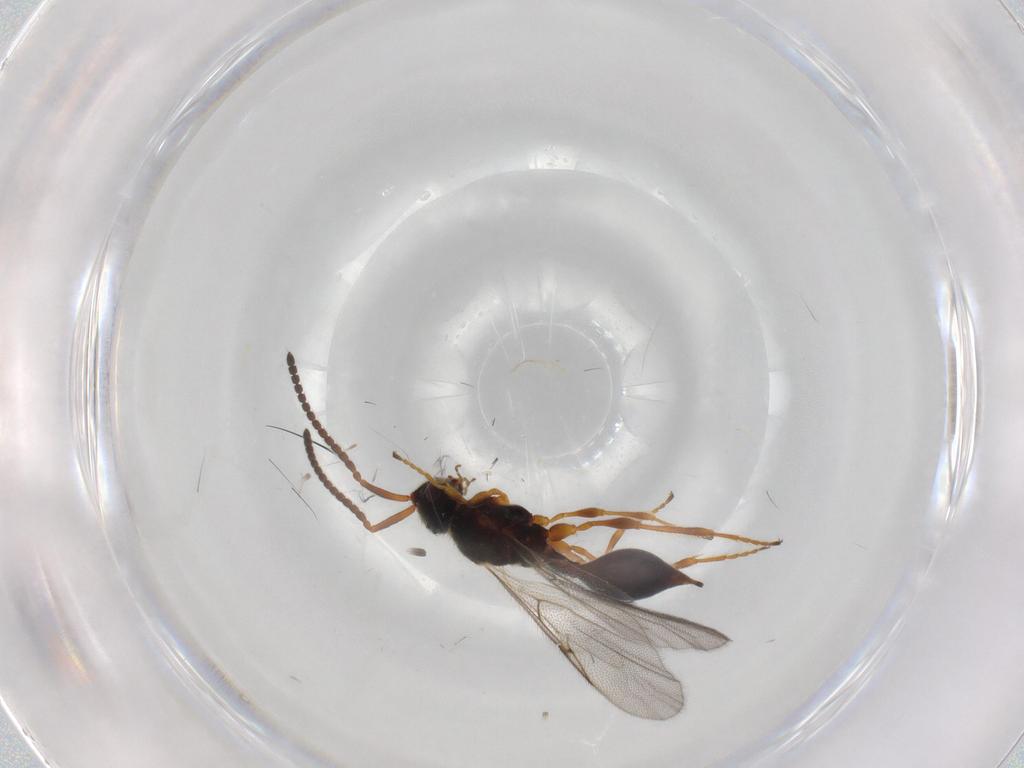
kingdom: Animalia
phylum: Arthropoda
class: Insecta
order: Hymenoptera
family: Diapriidae
